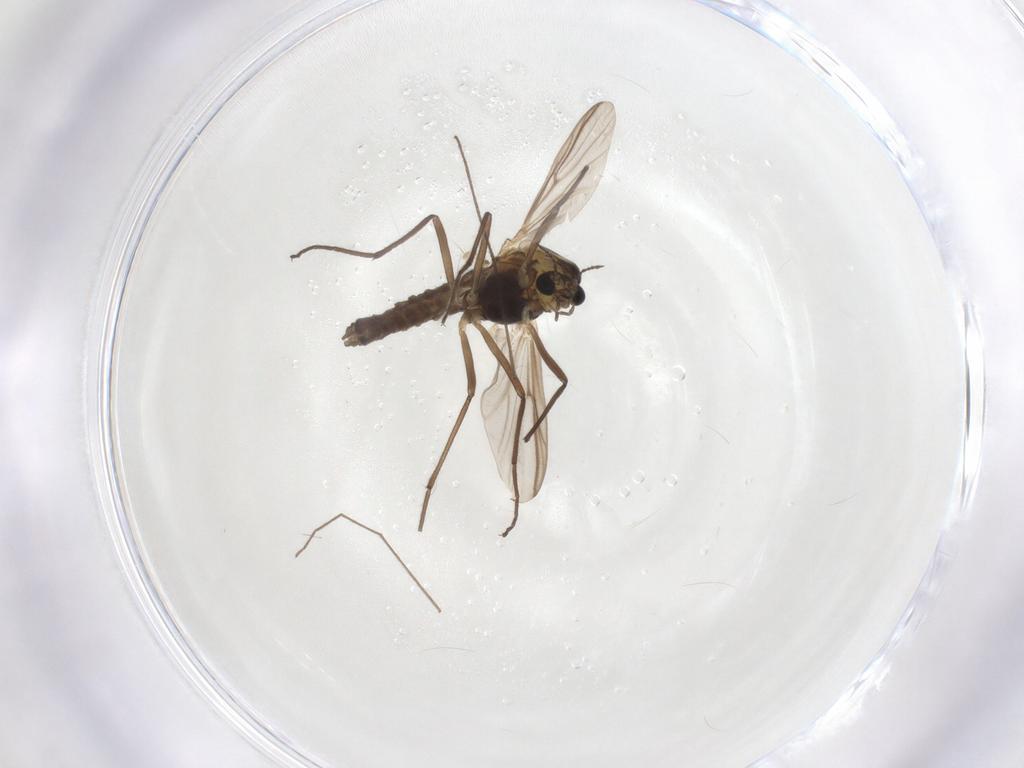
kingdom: Animalia
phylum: Arthropoda
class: Insecta
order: Diptera
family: Chironomidae
